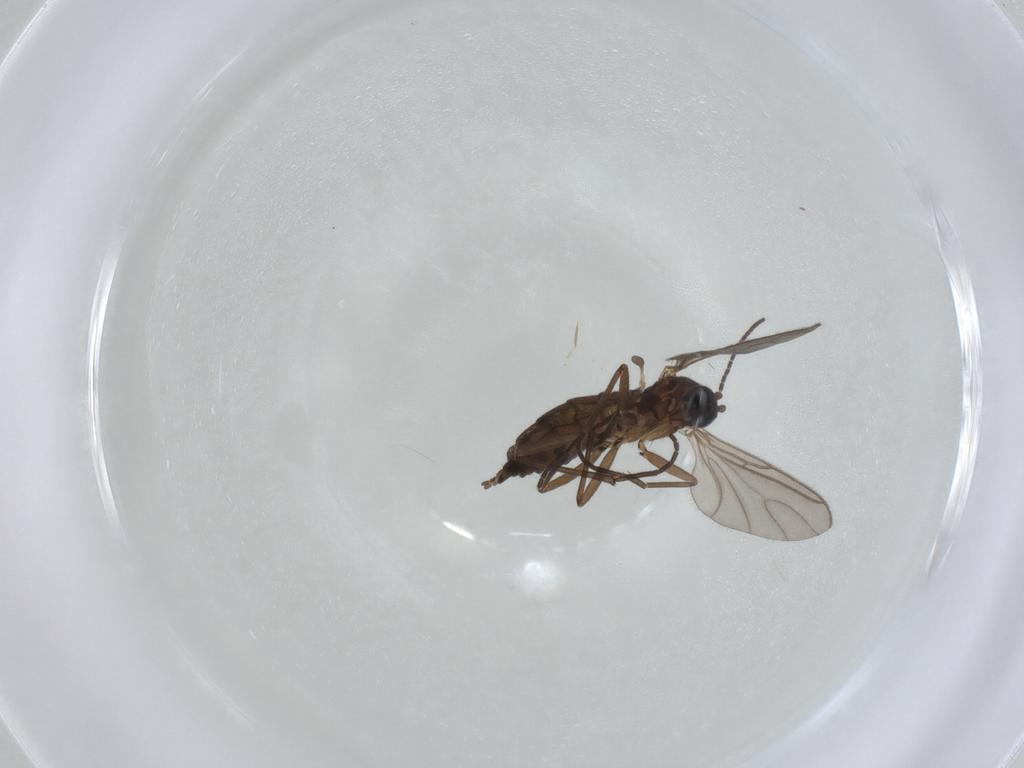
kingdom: Animalia
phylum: Arthropoda
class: Insecta
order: Diptera
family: Sciaridae
